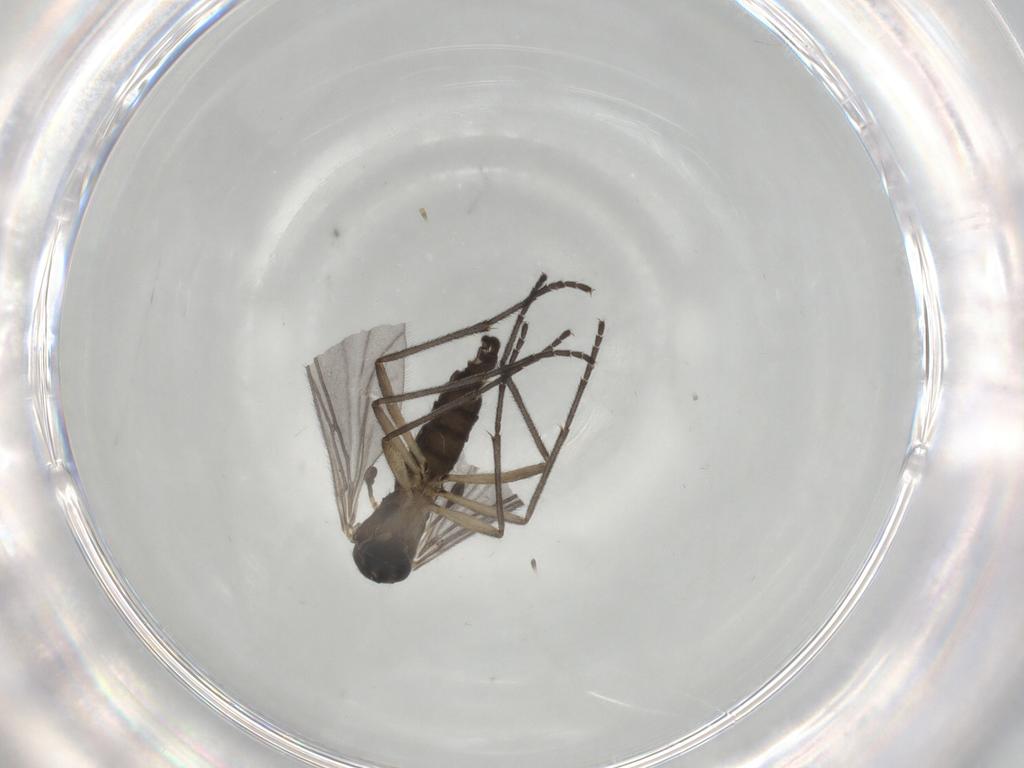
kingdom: Animalia
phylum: Arthropoda
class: Insecta
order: Diptera
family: Sciaridae
